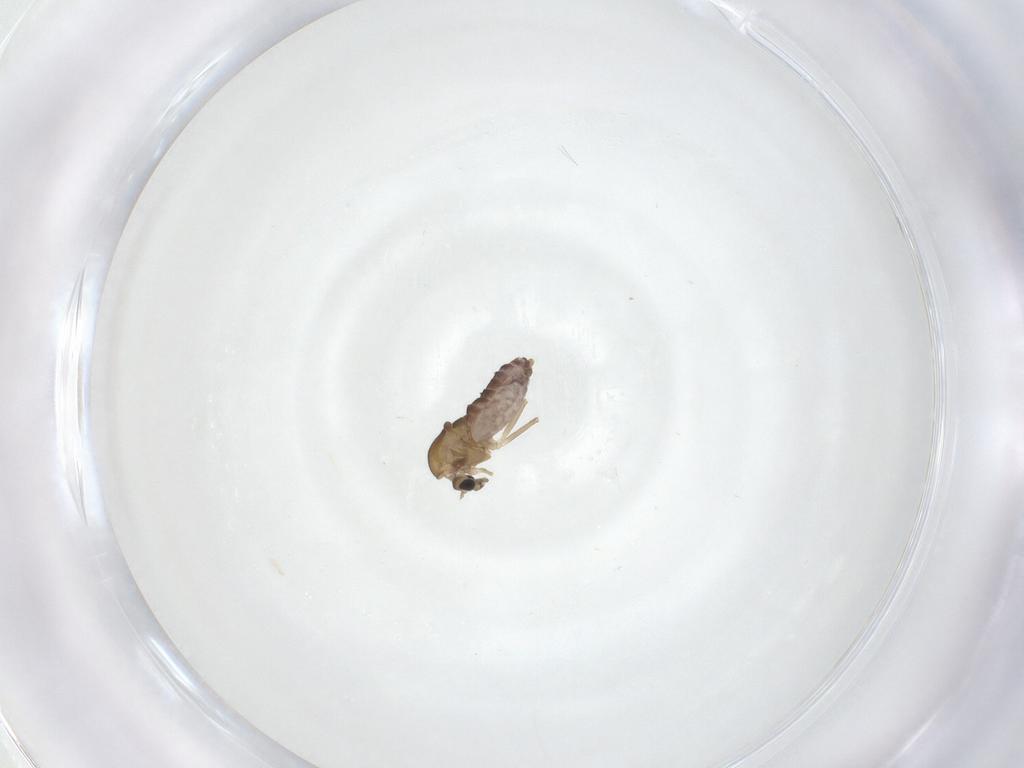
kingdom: Animalia
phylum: Arthropoda
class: Insecta
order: Diptera
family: Chironomidae
